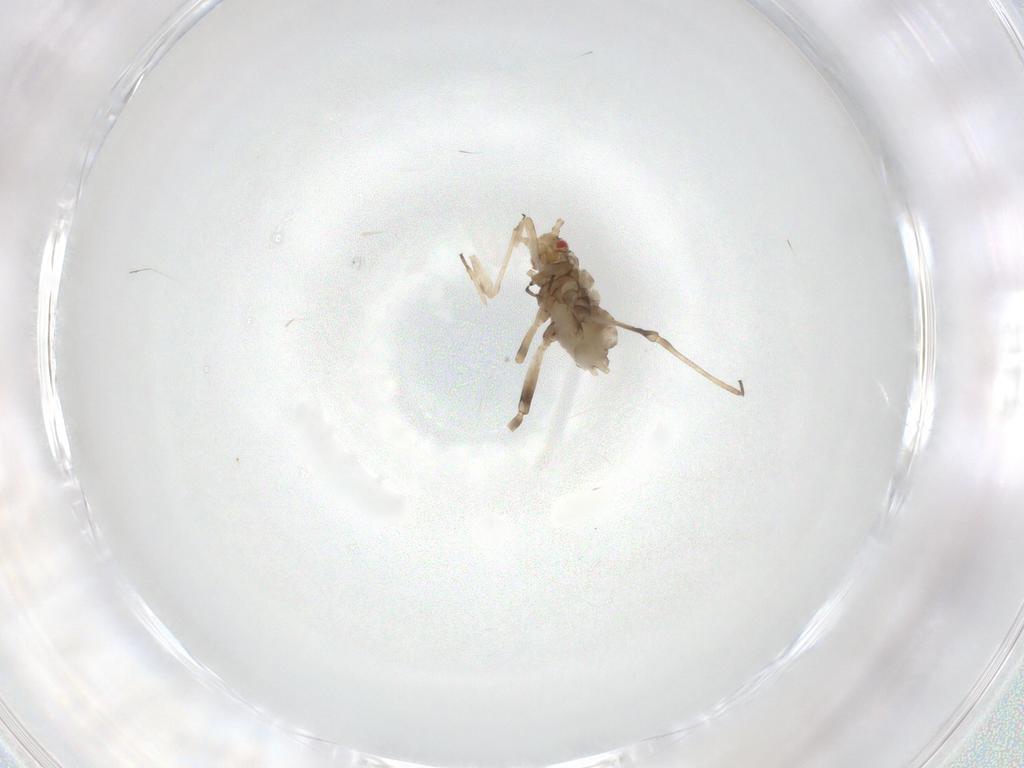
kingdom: Animalia
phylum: Arthropoda
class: Insecta
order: Hemiptera
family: Aphididae
